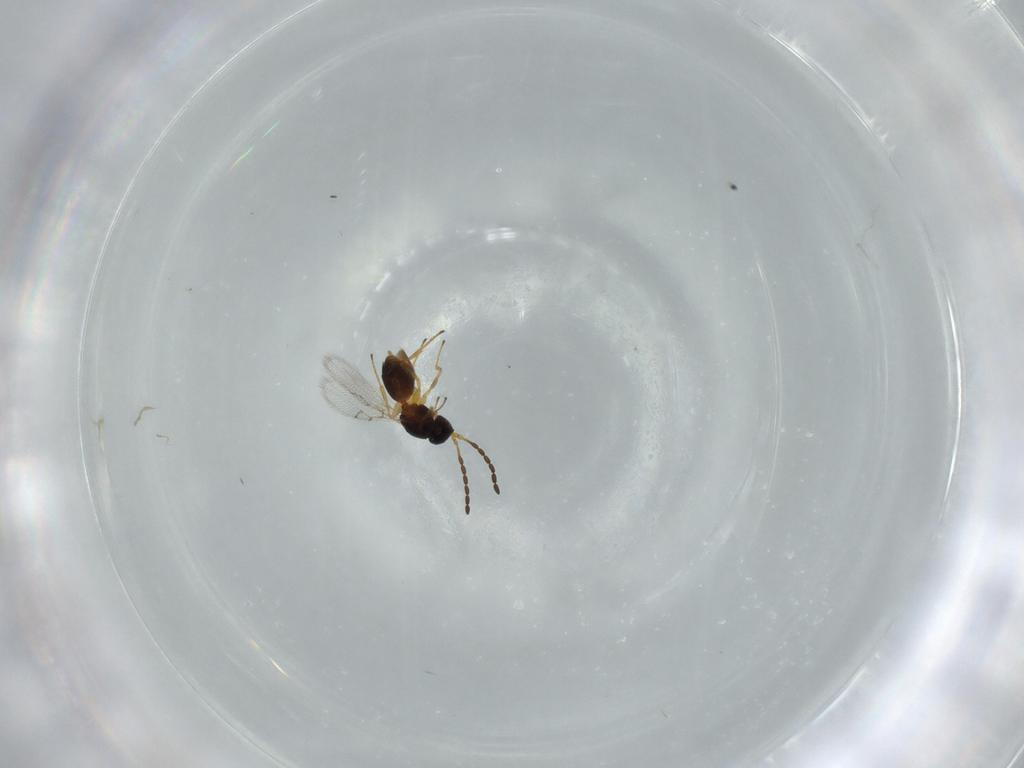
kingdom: Animalia
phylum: Arthropoda
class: Insecta
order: Hymenoptera
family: Figitidae
